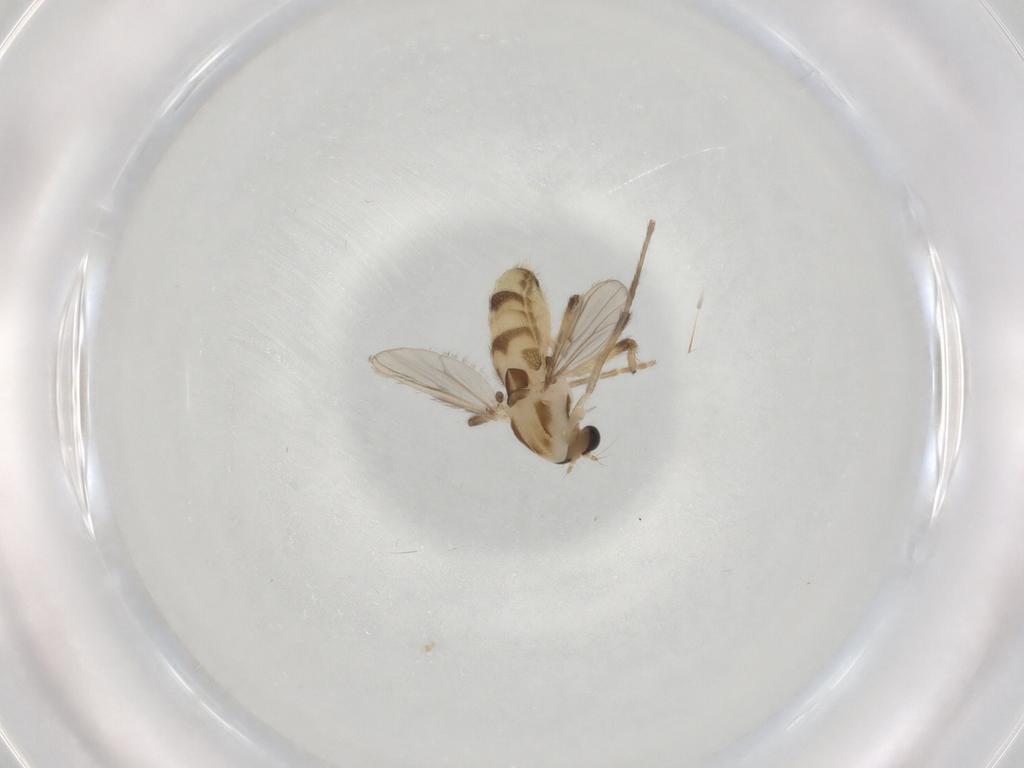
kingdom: Animalia
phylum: Arthropoda
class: Insecta
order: Diptera
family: Chironomidae
